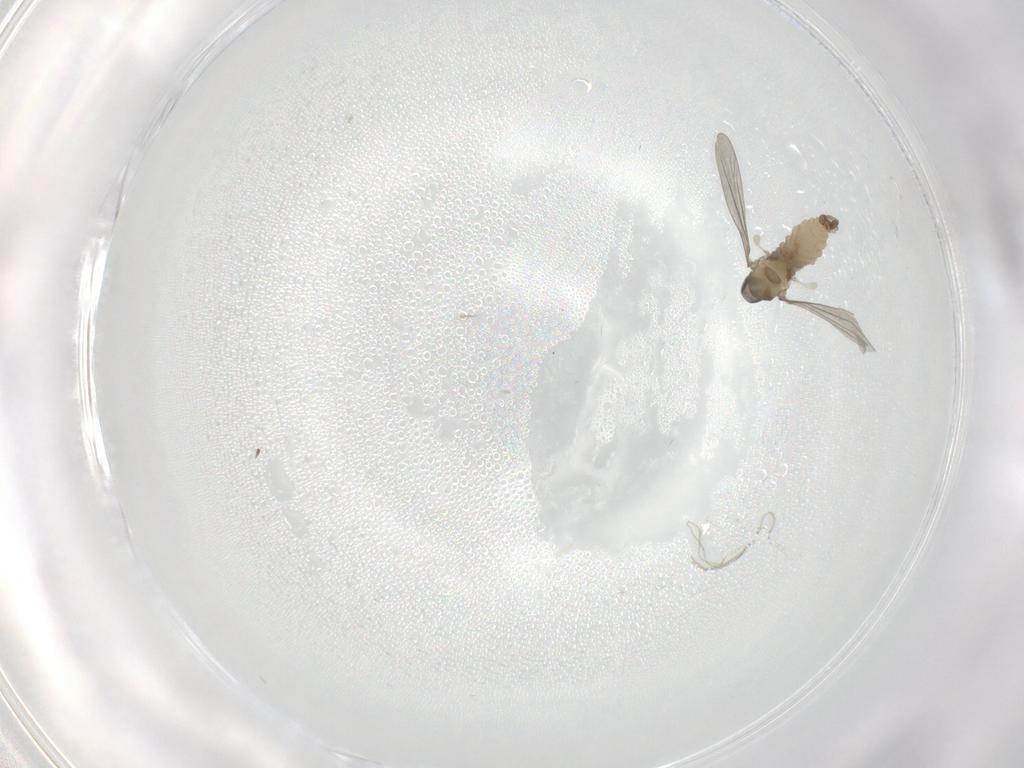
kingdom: Animalia
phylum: Arthropoda
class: Insecta
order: Diptera
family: Cecidomyiidae
